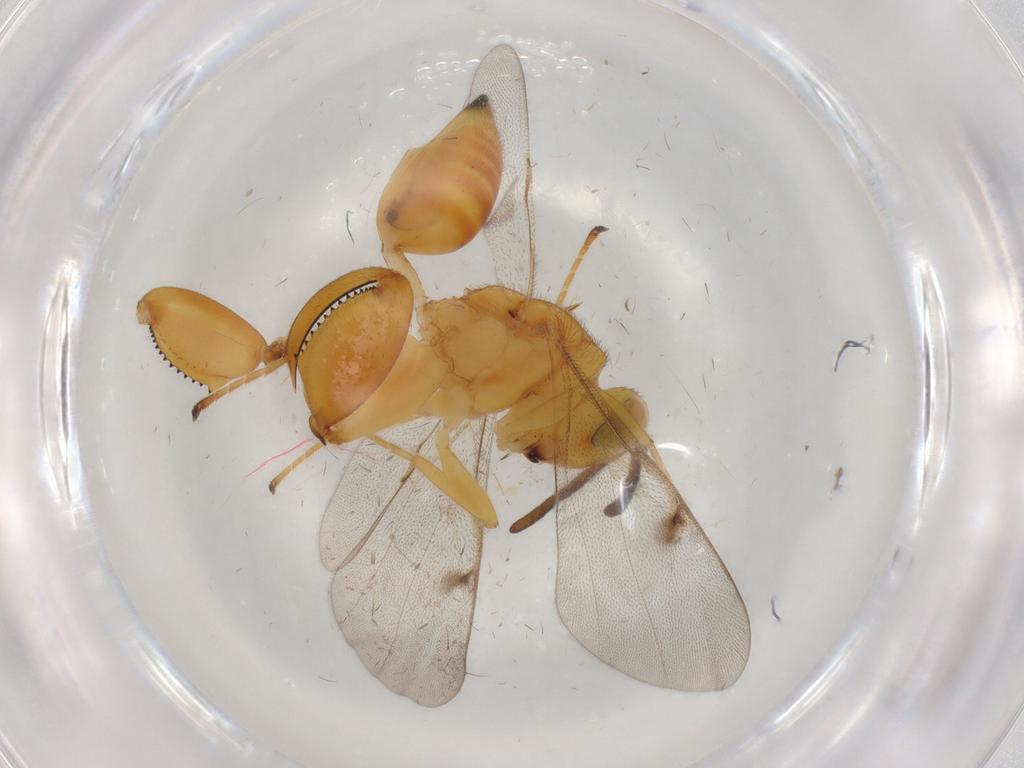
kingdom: Animalia
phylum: Arthropoda
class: Insecta
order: Hymenoptera
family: Chalcididae
